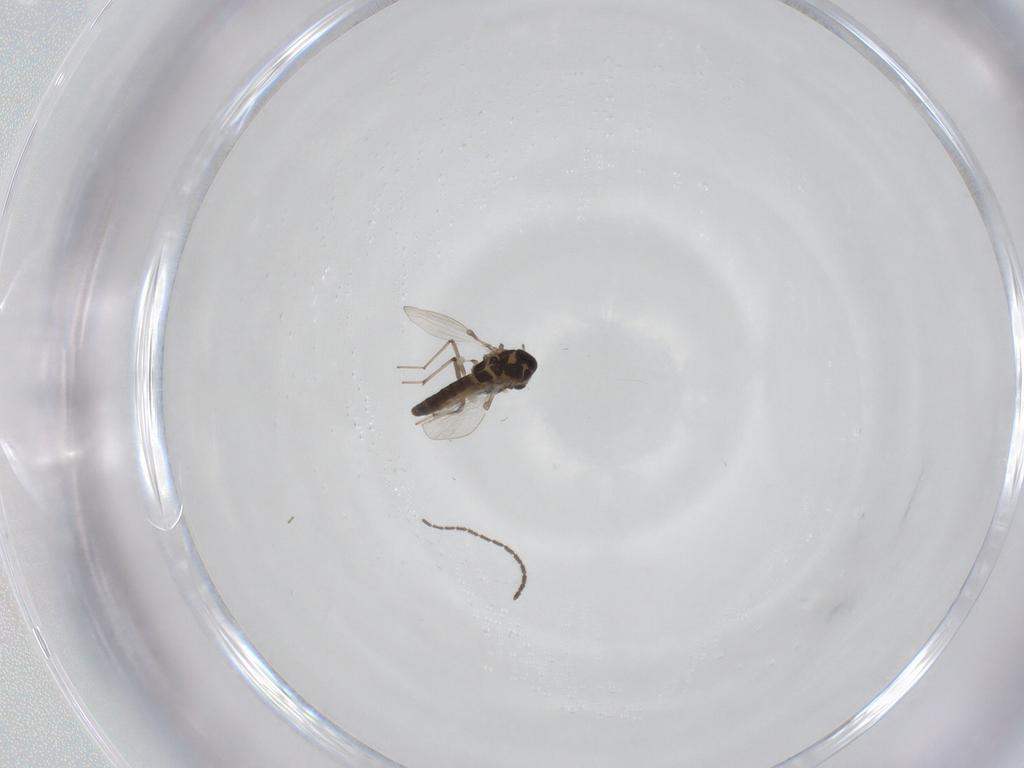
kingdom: Animalia
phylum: Arthropoda
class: Insecta
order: Diptera
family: Chironomidae
